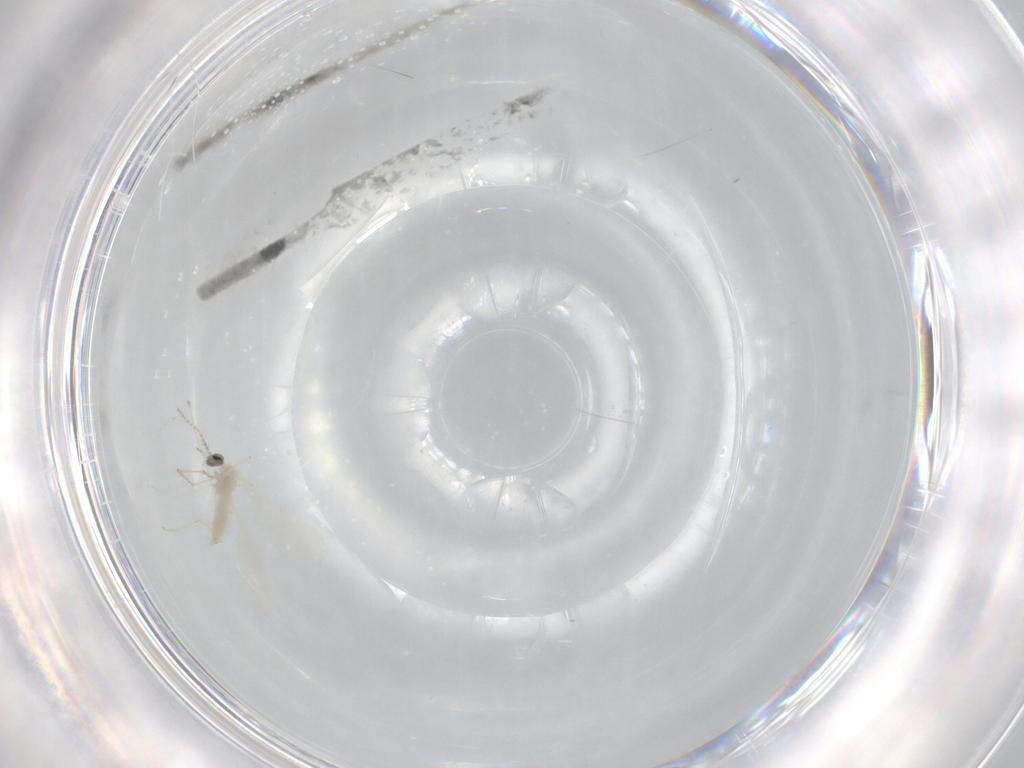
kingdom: Animalia
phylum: Arthropoda
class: Insecta
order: Diptera
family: Cecidomyiidae
